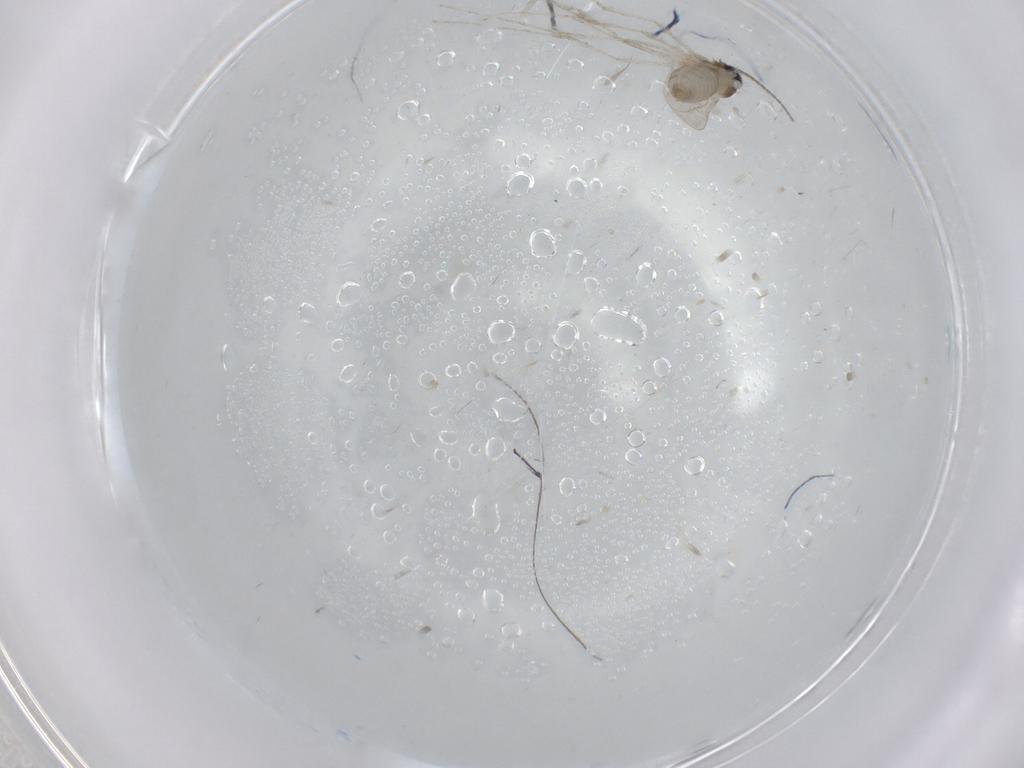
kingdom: Animalia
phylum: Arthropoda
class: Insecta
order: Diptera
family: Cecidomyiidae
